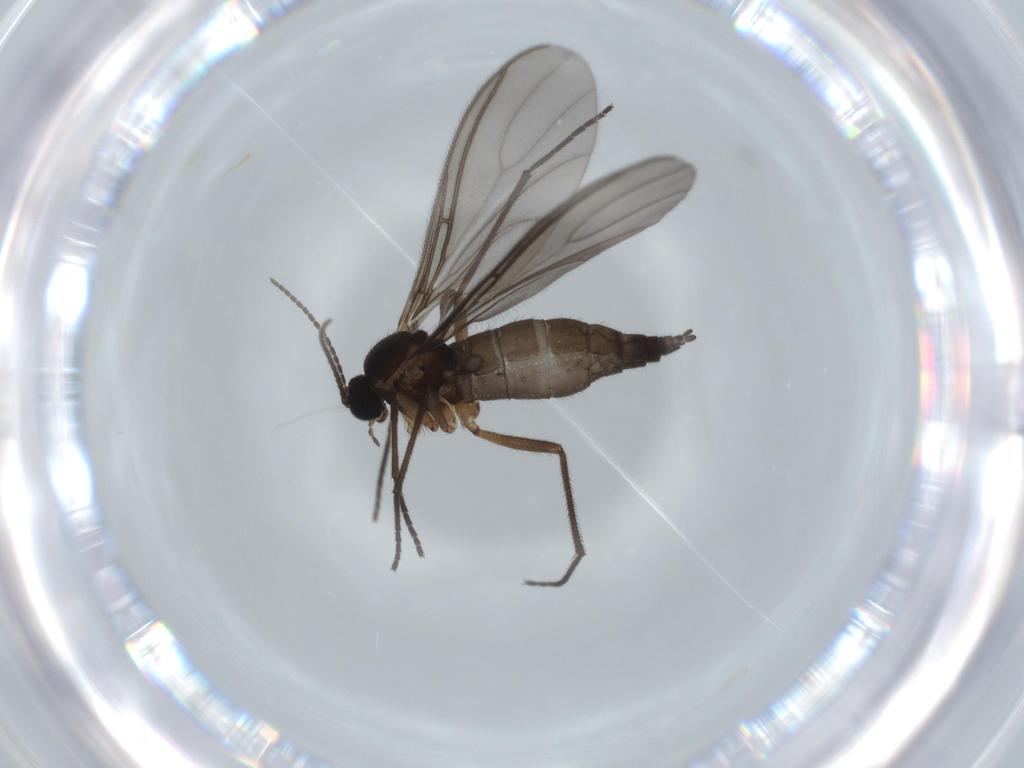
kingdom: Animalia
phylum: Arthropoda
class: Insecta
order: Diptera
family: Sciaridae
